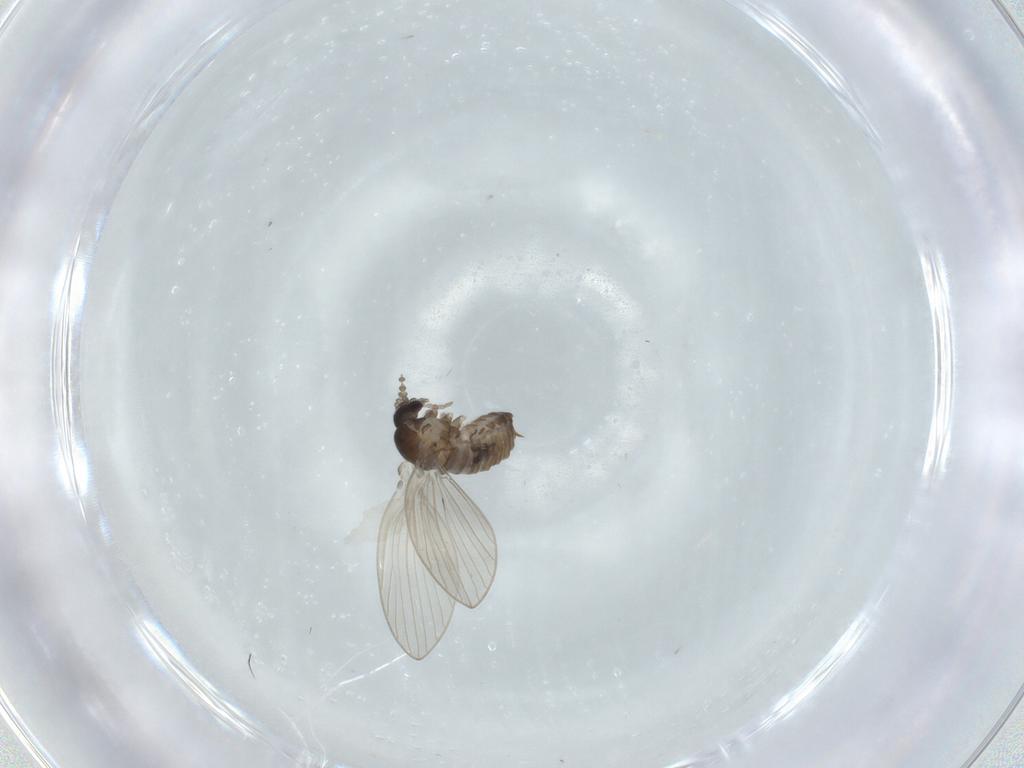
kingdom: Animalia
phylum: Arthropoda
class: Insecta
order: Diptera
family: Psychodidae
